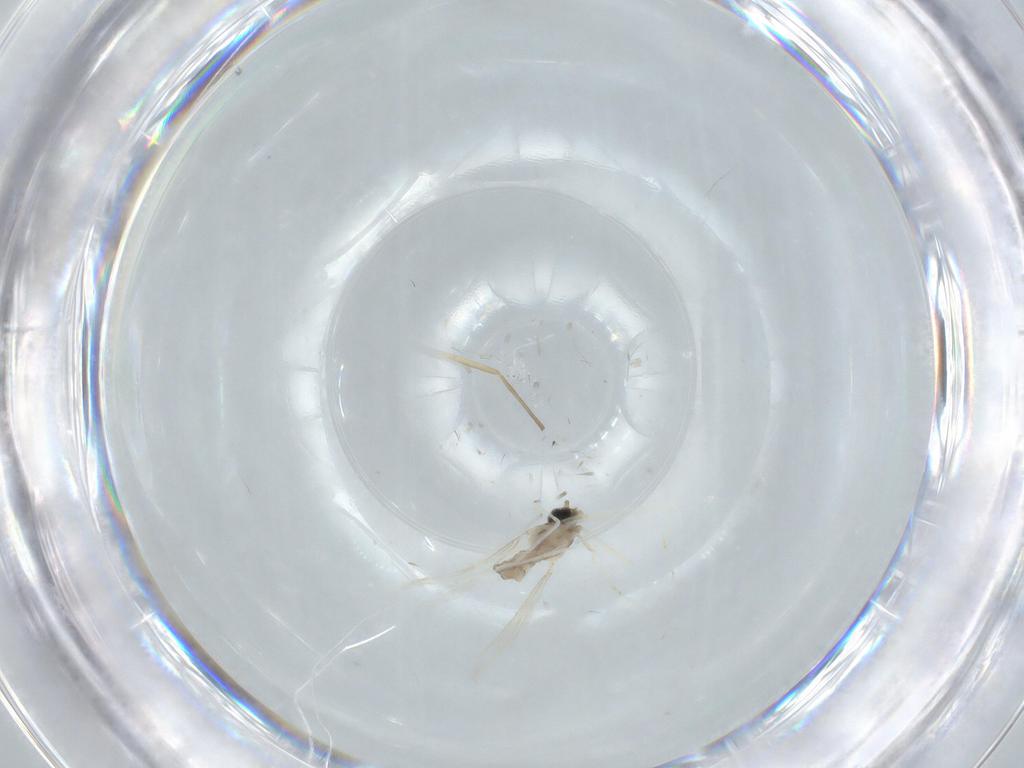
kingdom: Animalia
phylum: Arthropoda
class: Insecta
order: Diptera
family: Cecidomyiidae
